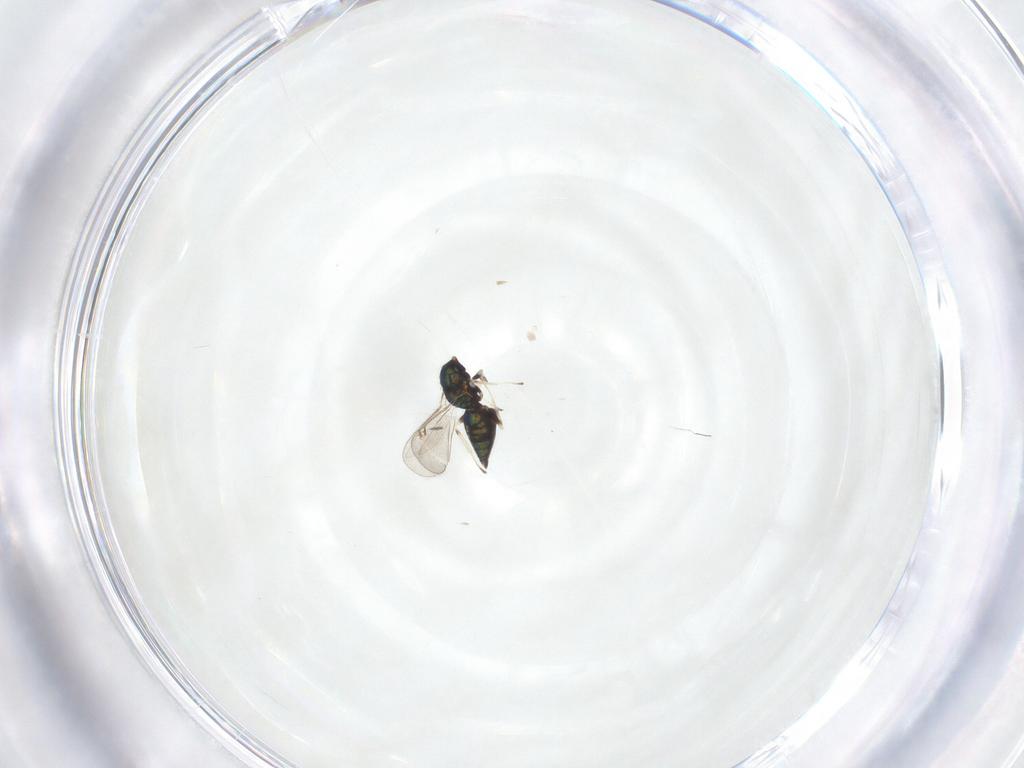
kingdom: Animalia
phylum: Arthropoda
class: Insecta
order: Hymenoptera
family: Eulophidae
